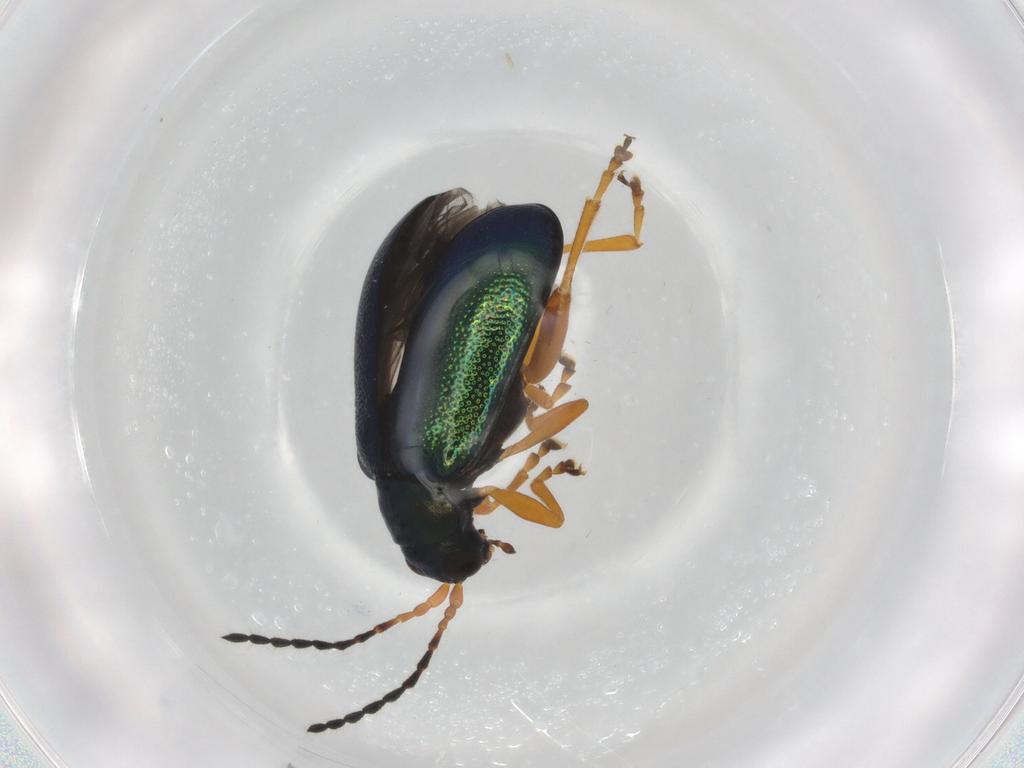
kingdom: Animalia
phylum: Arthropoda
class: Insecta
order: Coleoptera
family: Chrysomelidae
